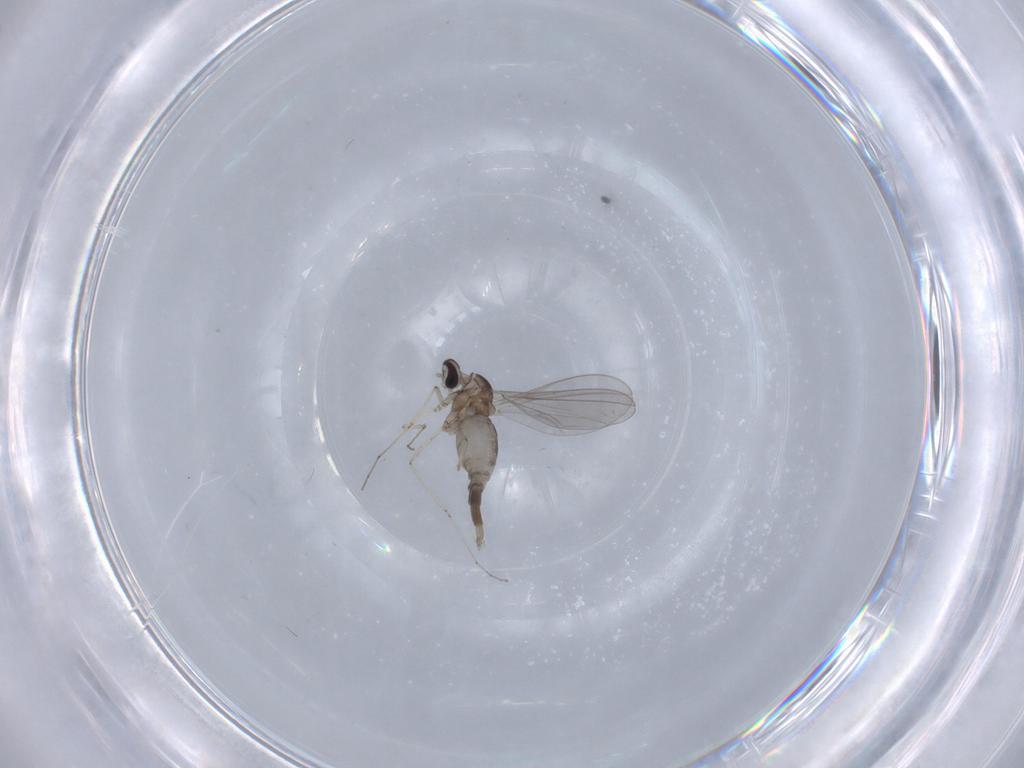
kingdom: Animalia
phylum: Arthropoda
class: Insecta
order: Diptera
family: Cecidomyiidae
